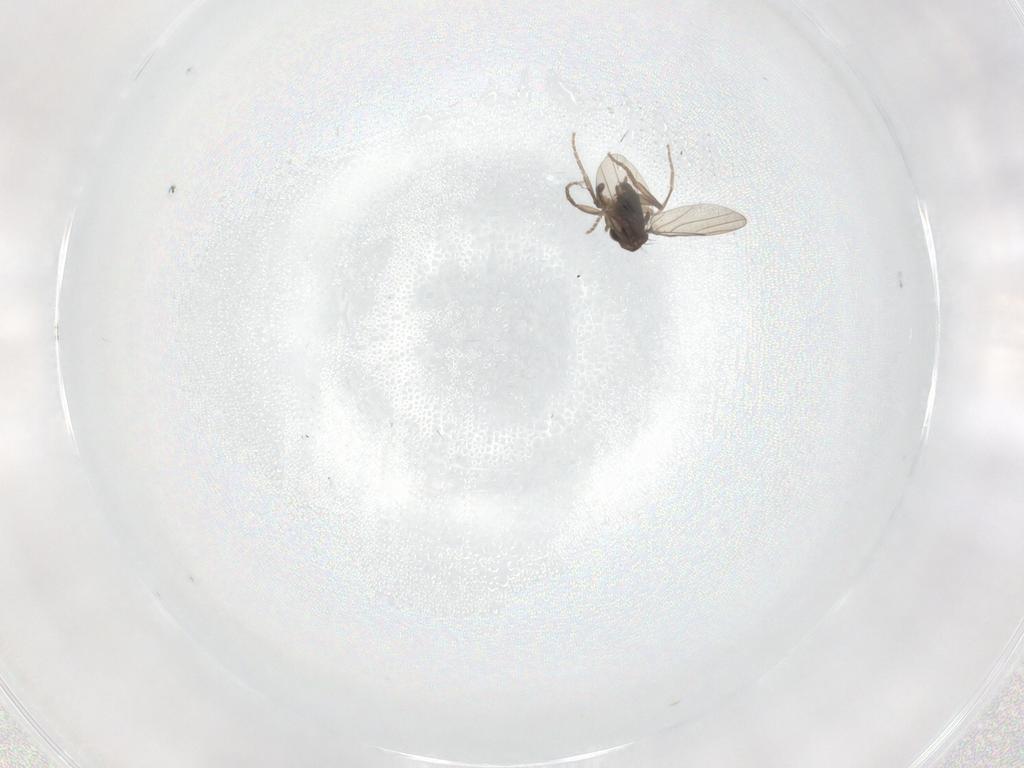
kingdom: Animalia
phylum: Arthropoda
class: Insecta
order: Diptera
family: Chironomidae
